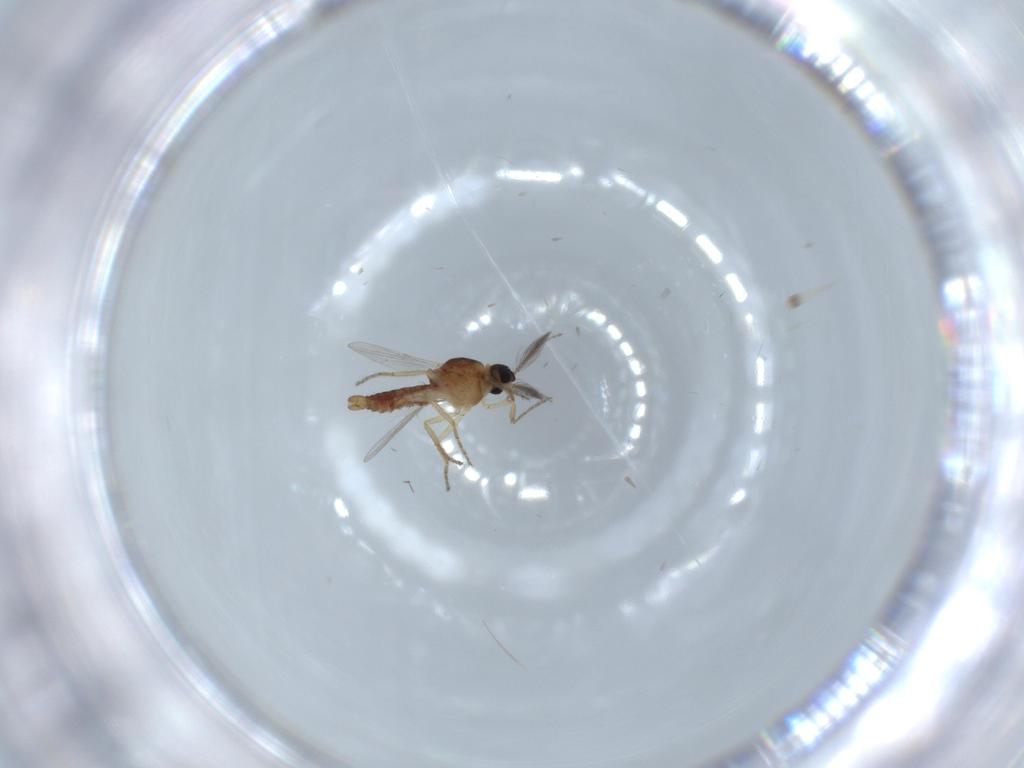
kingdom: Animalia
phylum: Arthropoda
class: Insecta
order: Diptera
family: Ceratopogonidae
